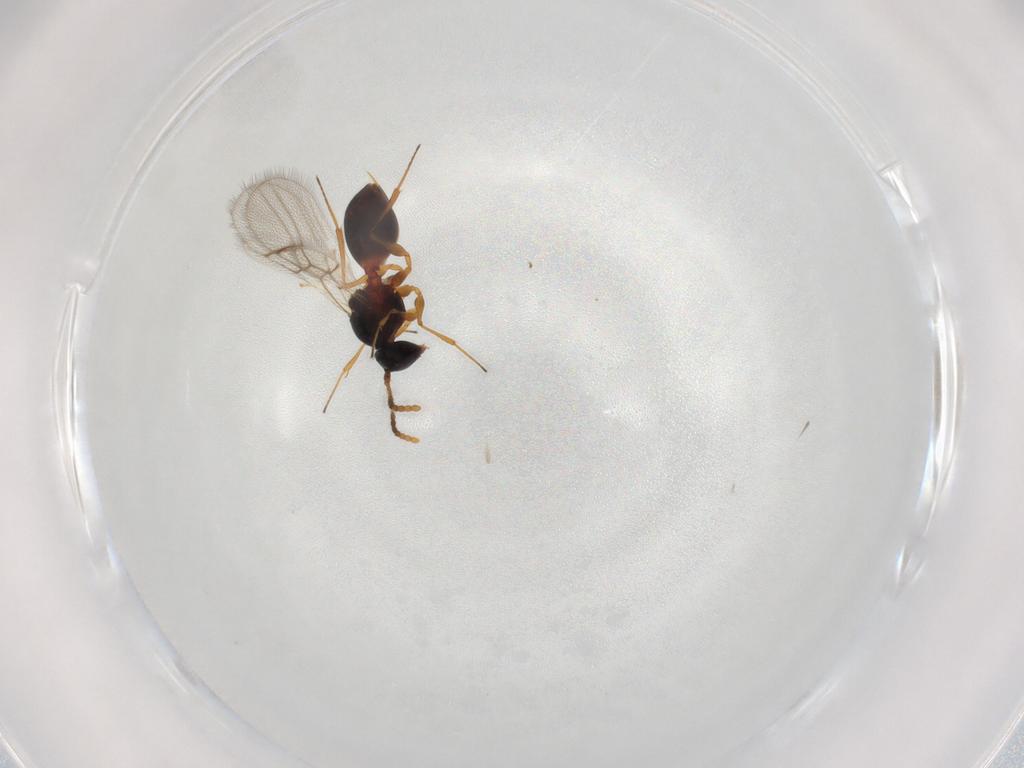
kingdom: Animalia
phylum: Arthropoda
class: Insecta
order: Hymenoptera
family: Figitidae
